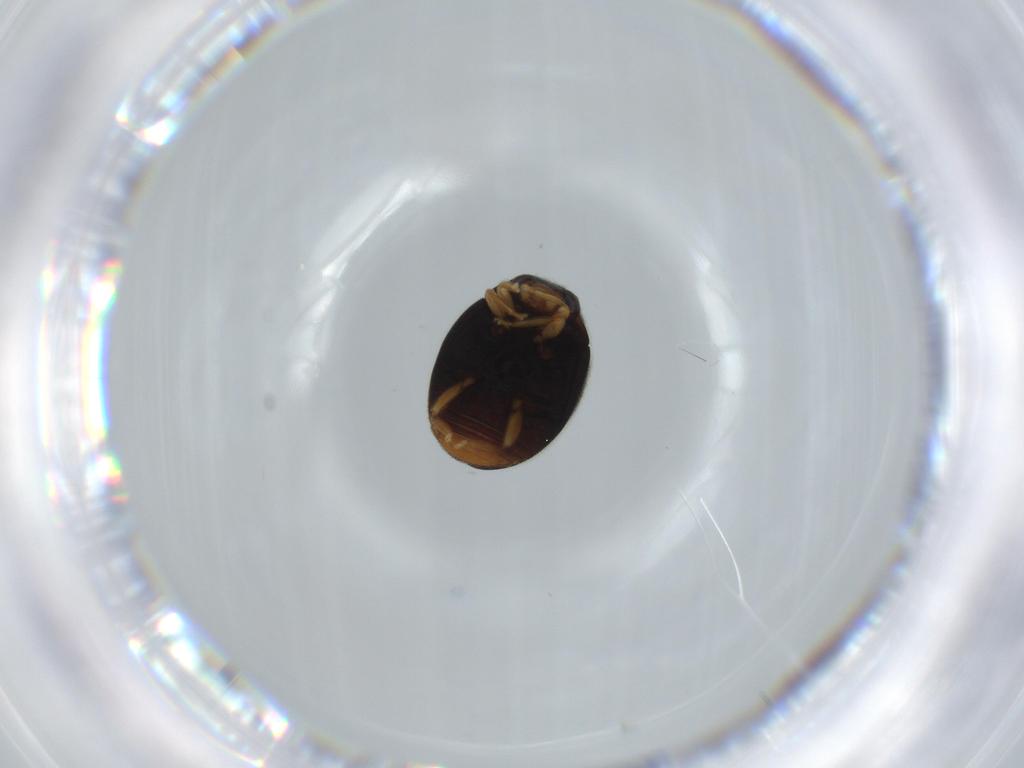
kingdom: Animalia
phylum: Arthropoda
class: Insecta
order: Coleoptera
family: Coccinellidae
